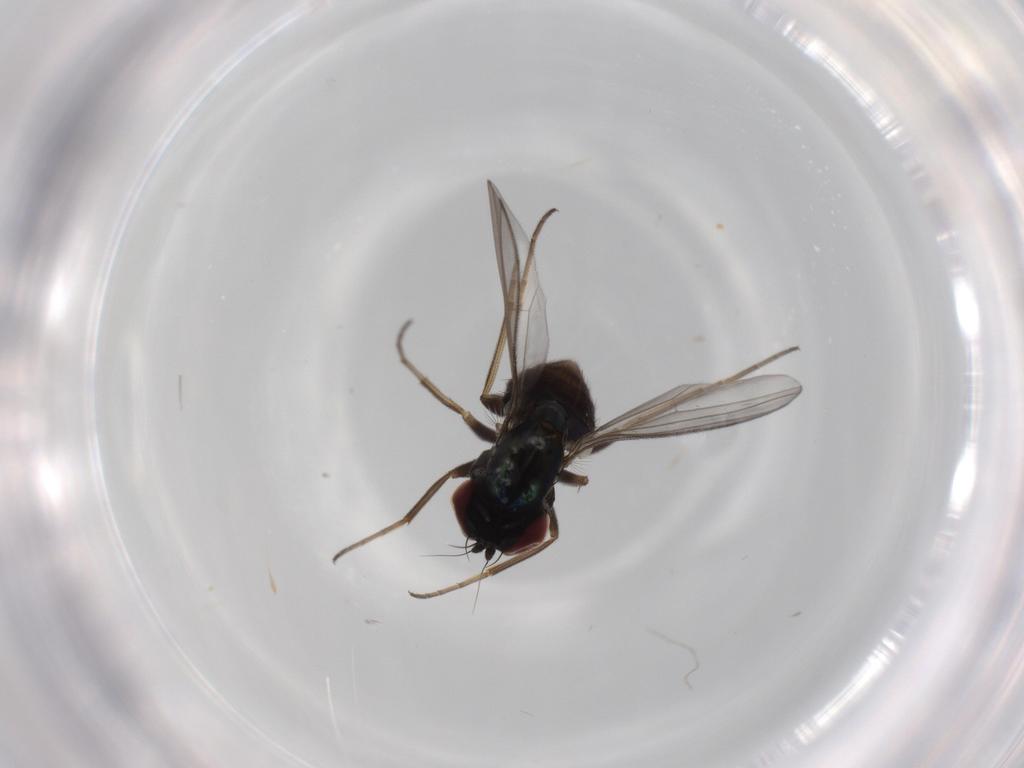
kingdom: Animalia
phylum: Arthropoda
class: Insecta
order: Diptera
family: Dolichopodidae
